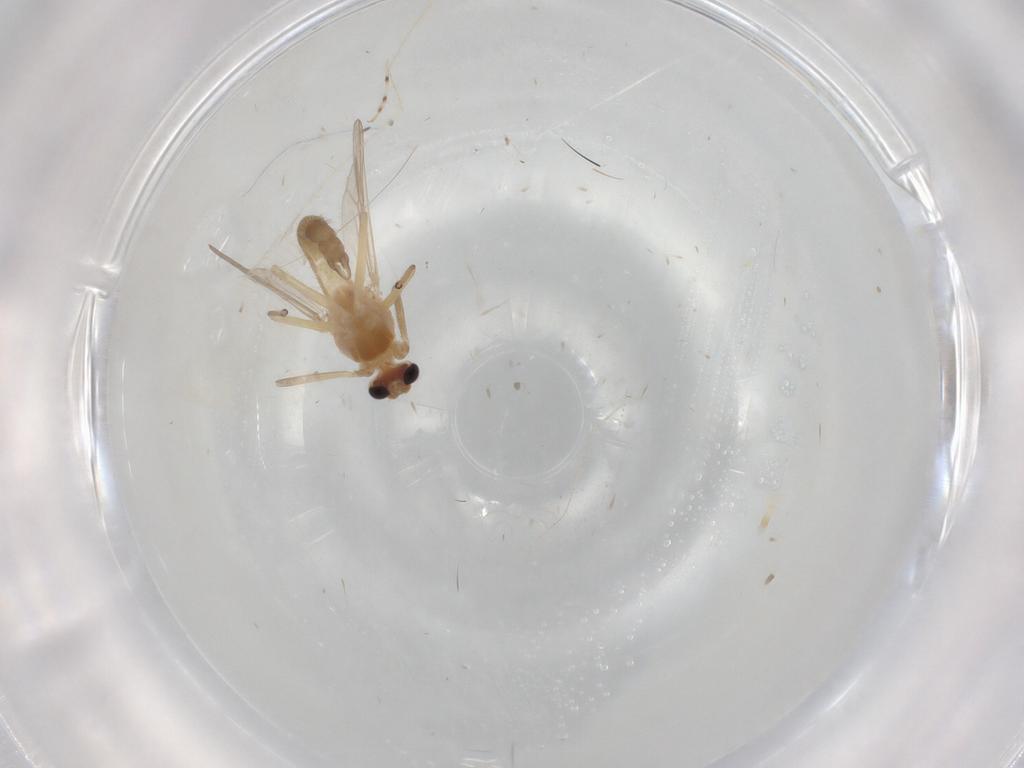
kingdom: Animalia
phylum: Arthropoda
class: Insecta
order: Diptera
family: Chironomidae
